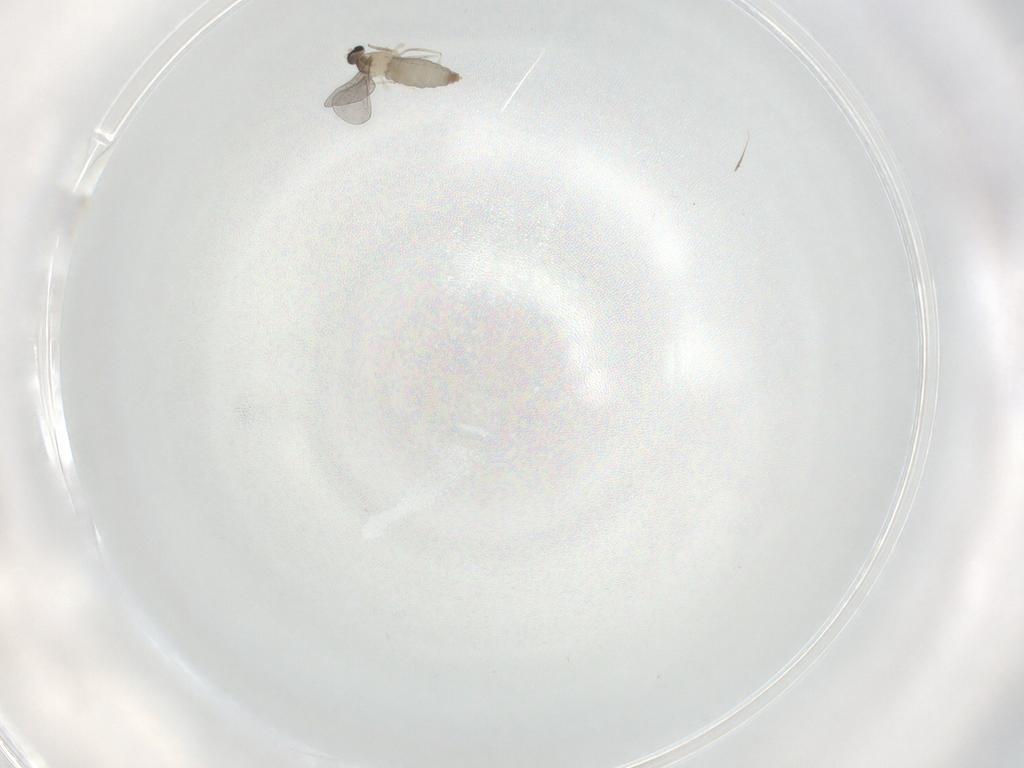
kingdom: Animalia
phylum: Arthropoda
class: Insecta
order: Diptera
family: Cecidomyiidae
